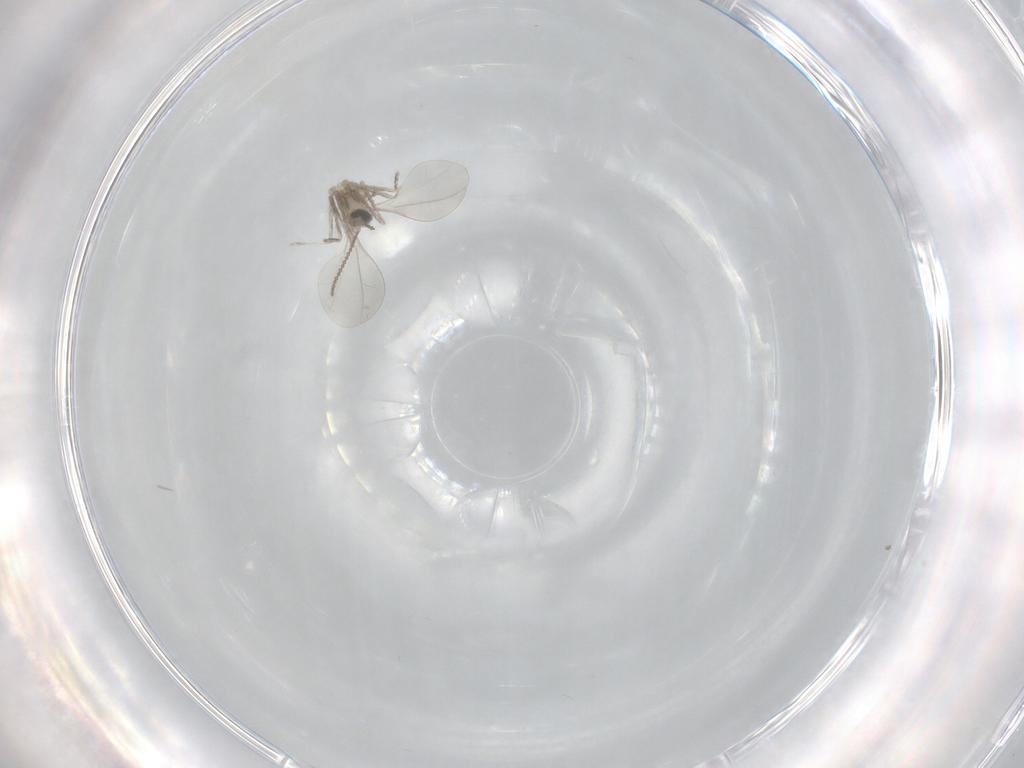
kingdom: Animalia
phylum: Arthropoda
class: Insecta
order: Diptera
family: Cecidomyiidae
